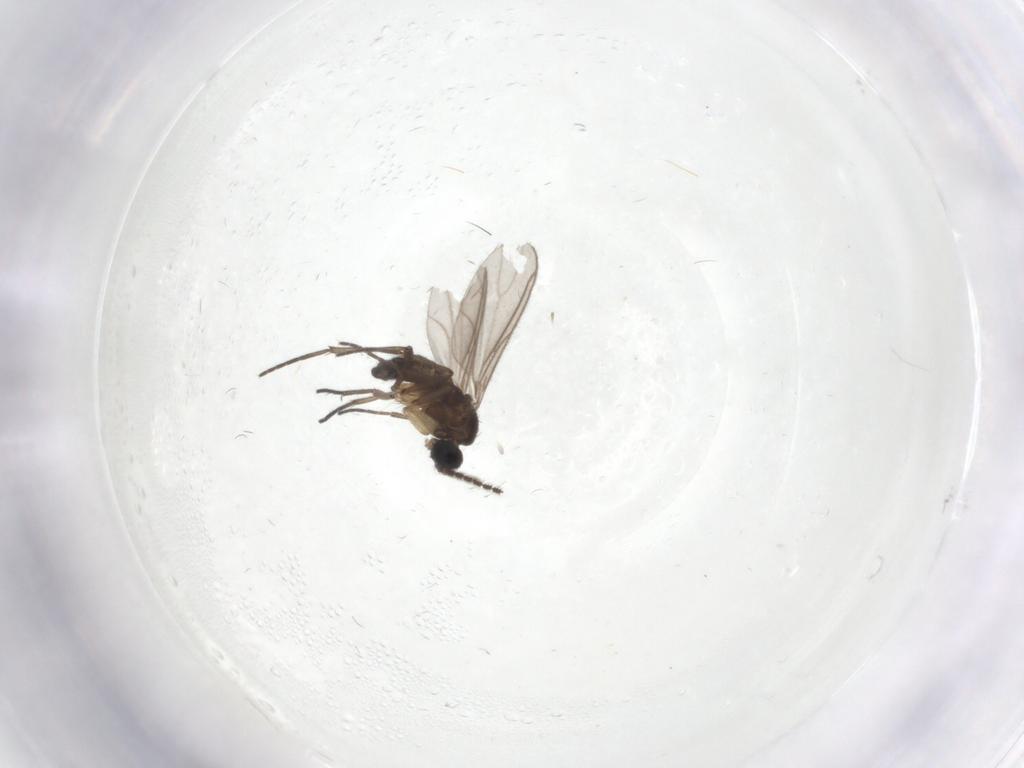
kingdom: Animalia
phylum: Arthropoda
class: Insecta
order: Diptera
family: Psychodidae
